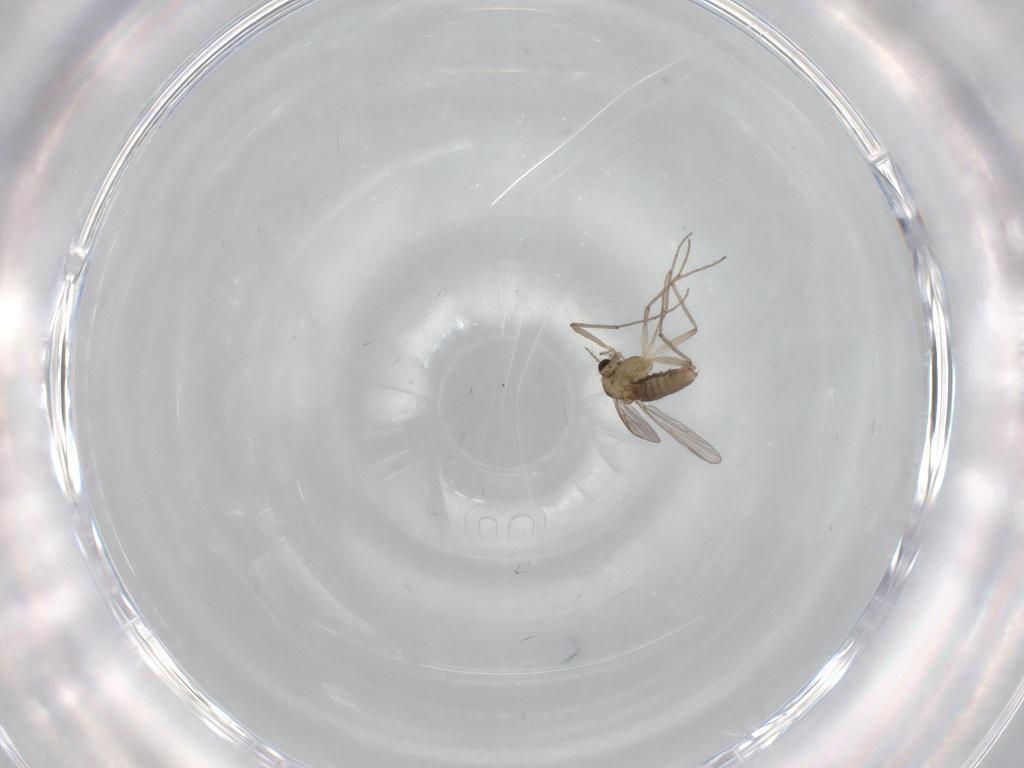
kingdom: Animalia
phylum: Arthropoda
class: Insecta
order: Diptera
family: Chironomidae
